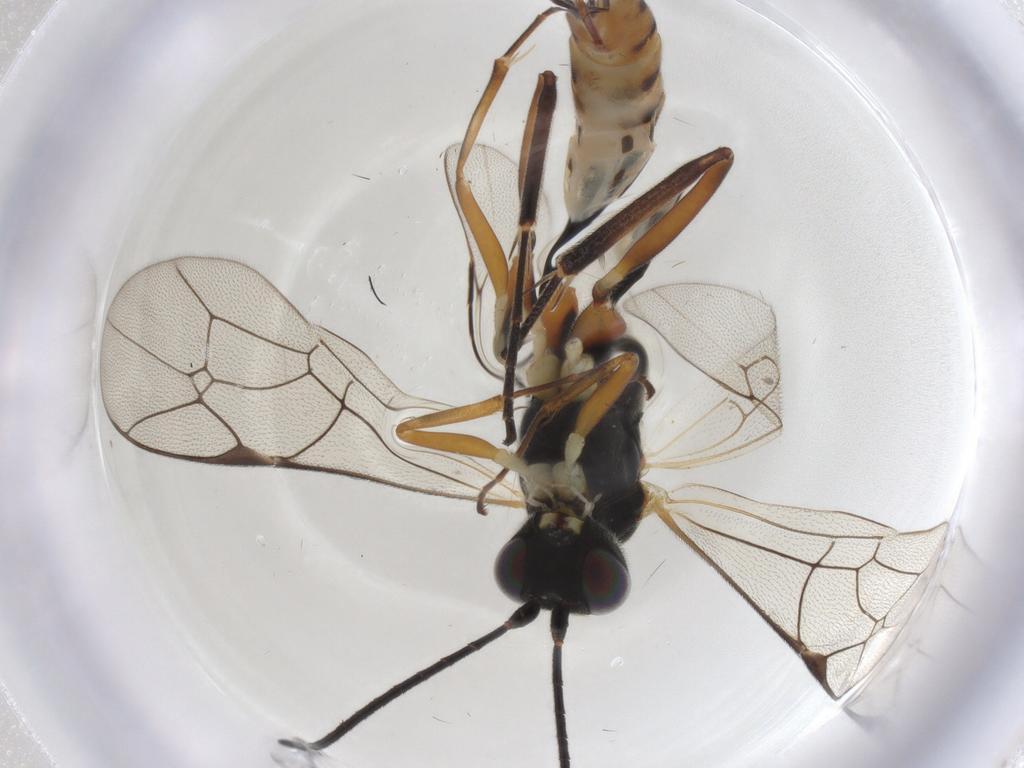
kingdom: Animalia
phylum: Arthropoda
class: Insecta
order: Hymenoptera
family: Ichneumonidae
